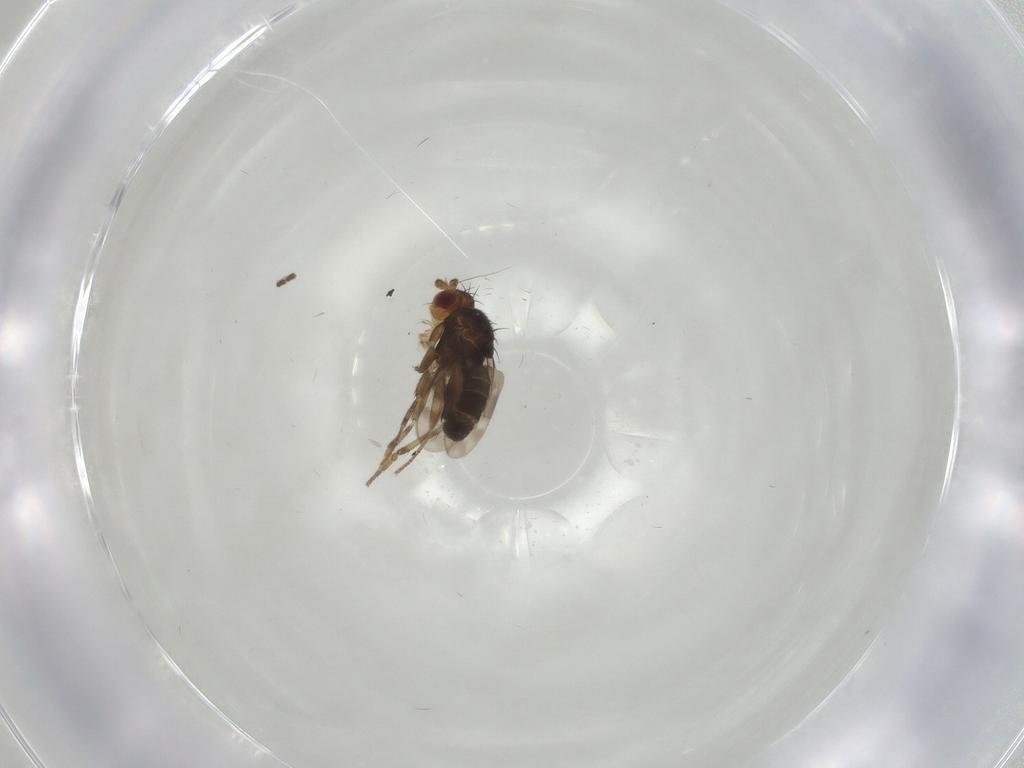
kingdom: Animalia
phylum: Arthropoda
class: Insecta
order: Diptera
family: Sphaeroceridae
